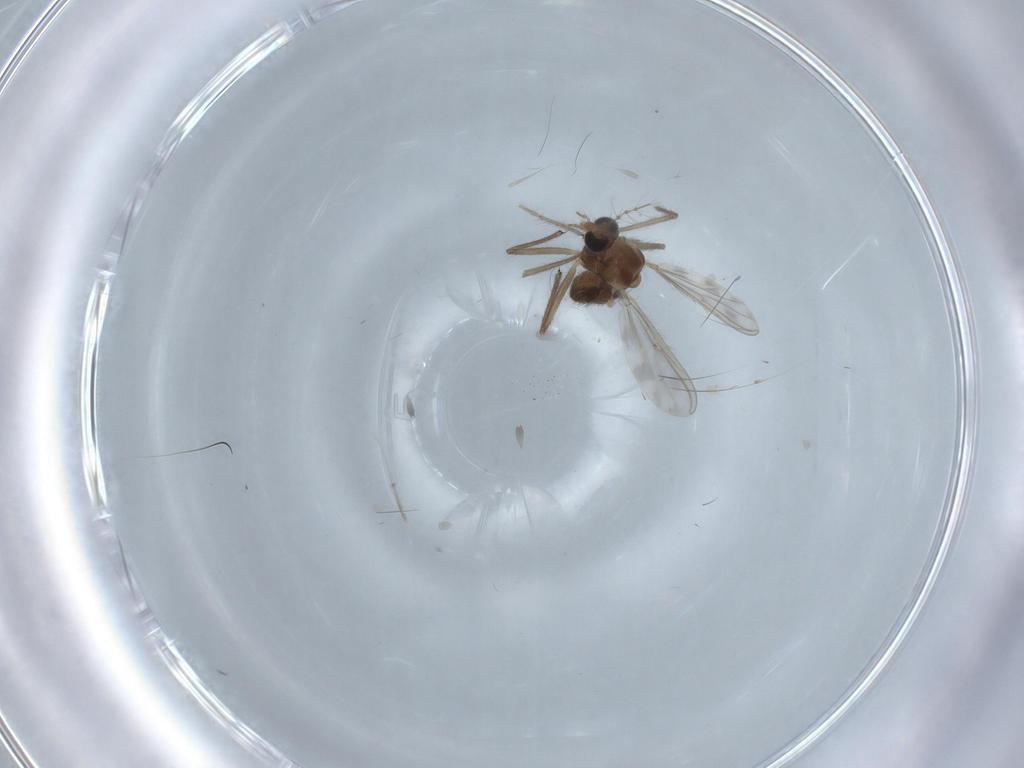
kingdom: Animalia
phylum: Arthropoda
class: Insecta
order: Diptera
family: Chironomidae
